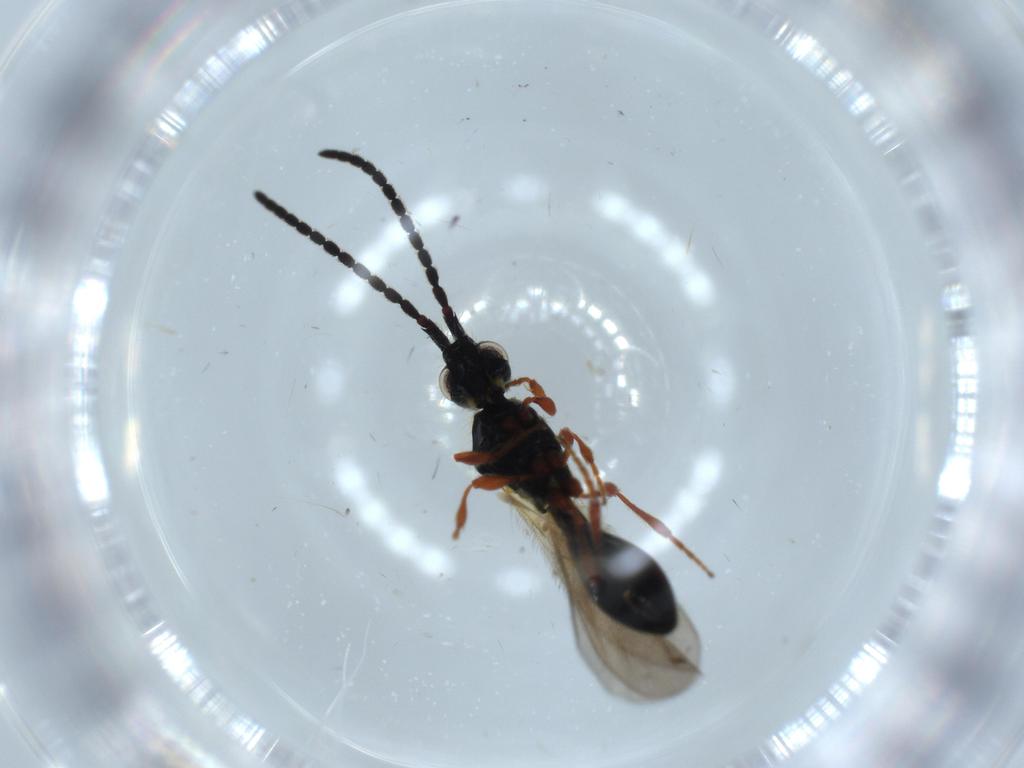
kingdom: Animalia
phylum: Arthropoda
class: Insecta
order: Hymenoptera
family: Diapriidae
